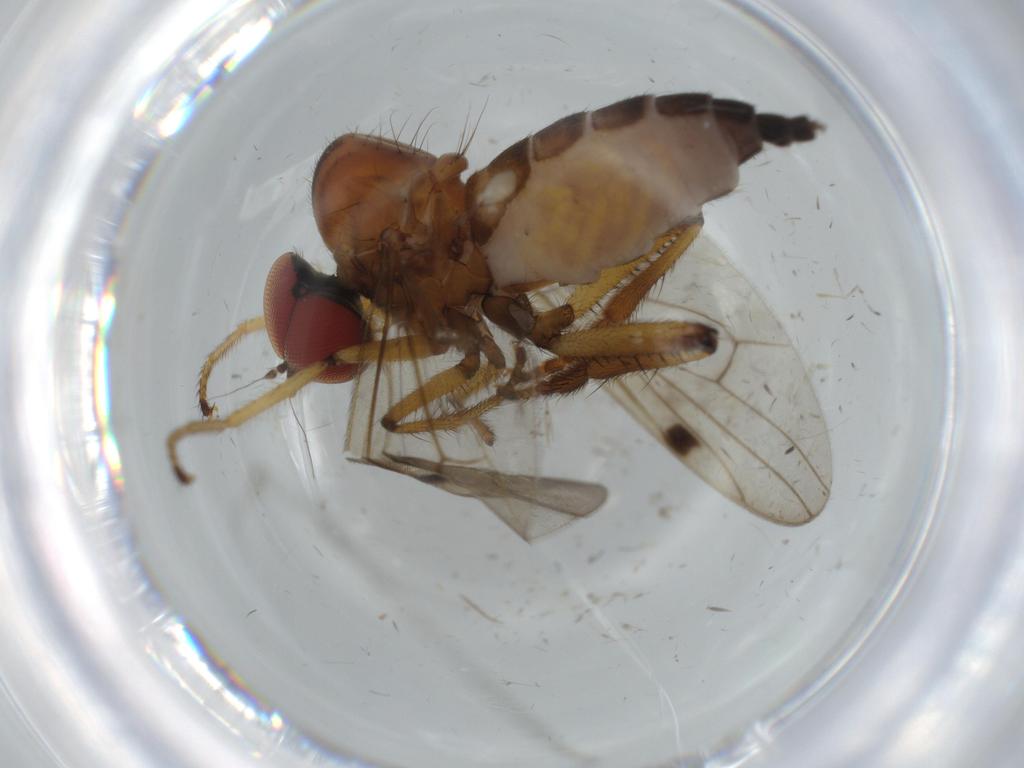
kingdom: Animalia
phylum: Arthropoda
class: Insecta
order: Diptera
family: Hybotidae
